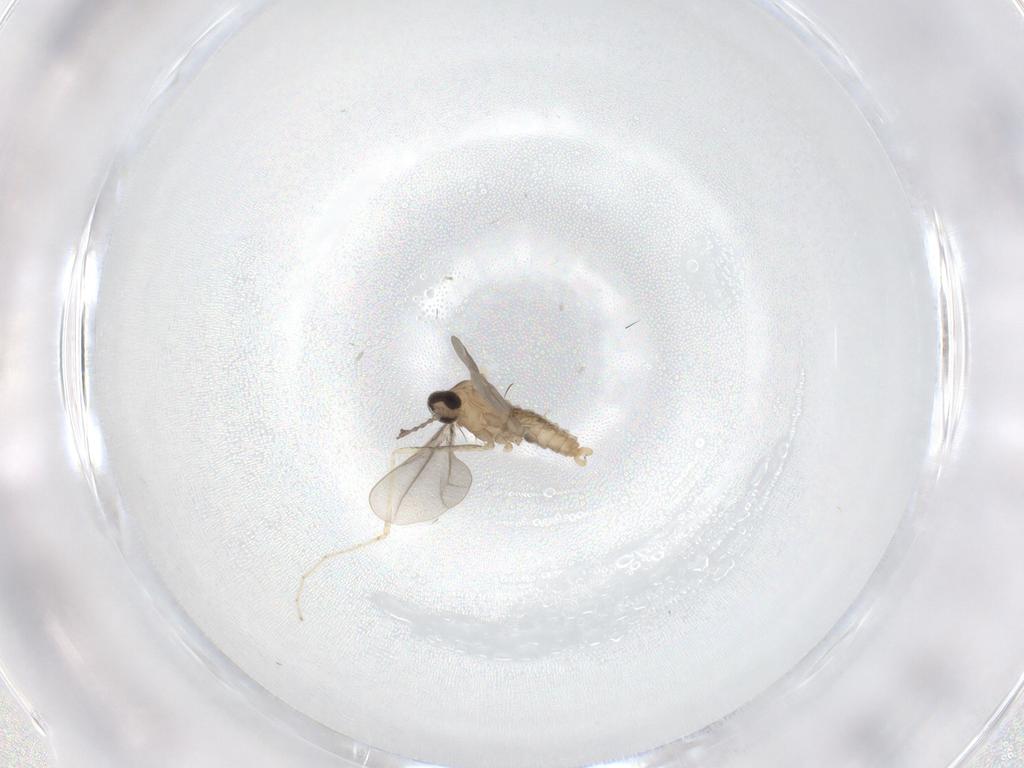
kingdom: Animalia
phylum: Arthropoda
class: Insecta
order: Diptera
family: Cecidomyiidae
